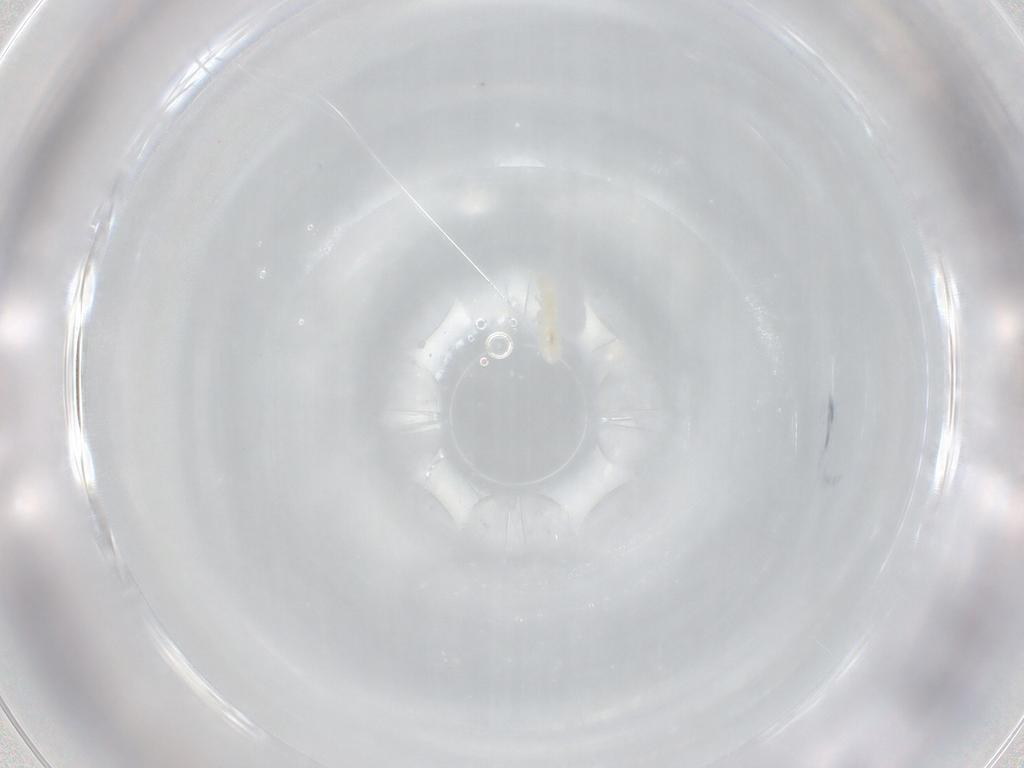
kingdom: Animalia
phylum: Arthropoda
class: Collembola
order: Poduromorpha
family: Onychiuridae
